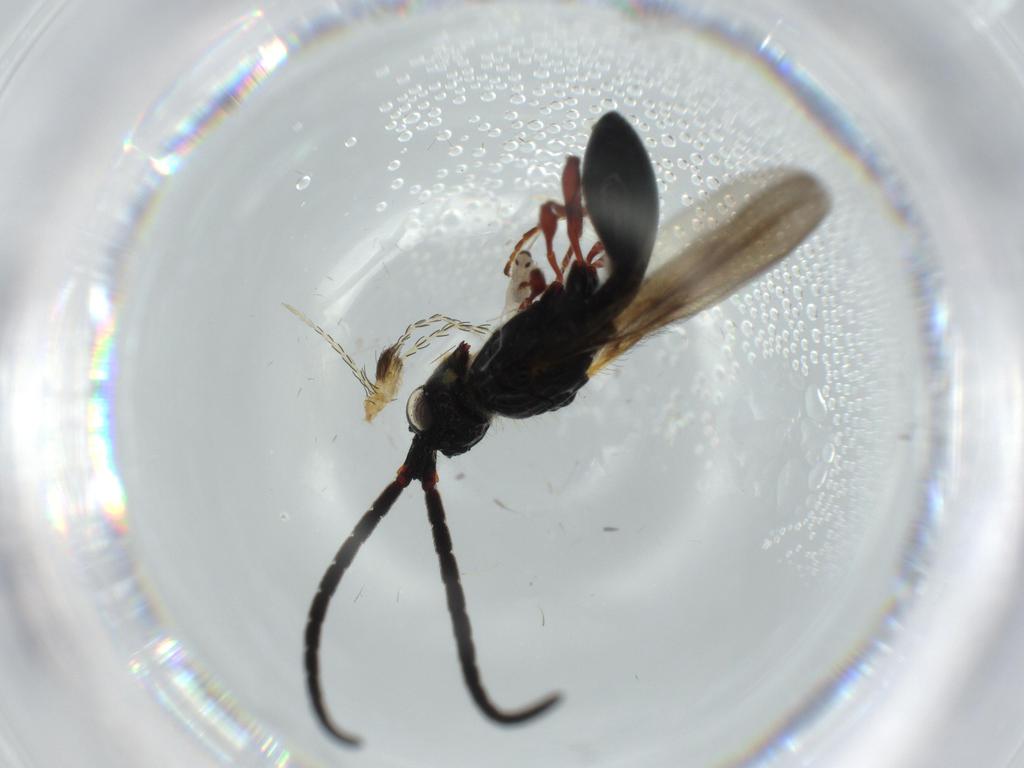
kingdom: Animalia
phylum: Arthropoda
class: Insecta
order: Diptera
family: Cecidomyiidae
